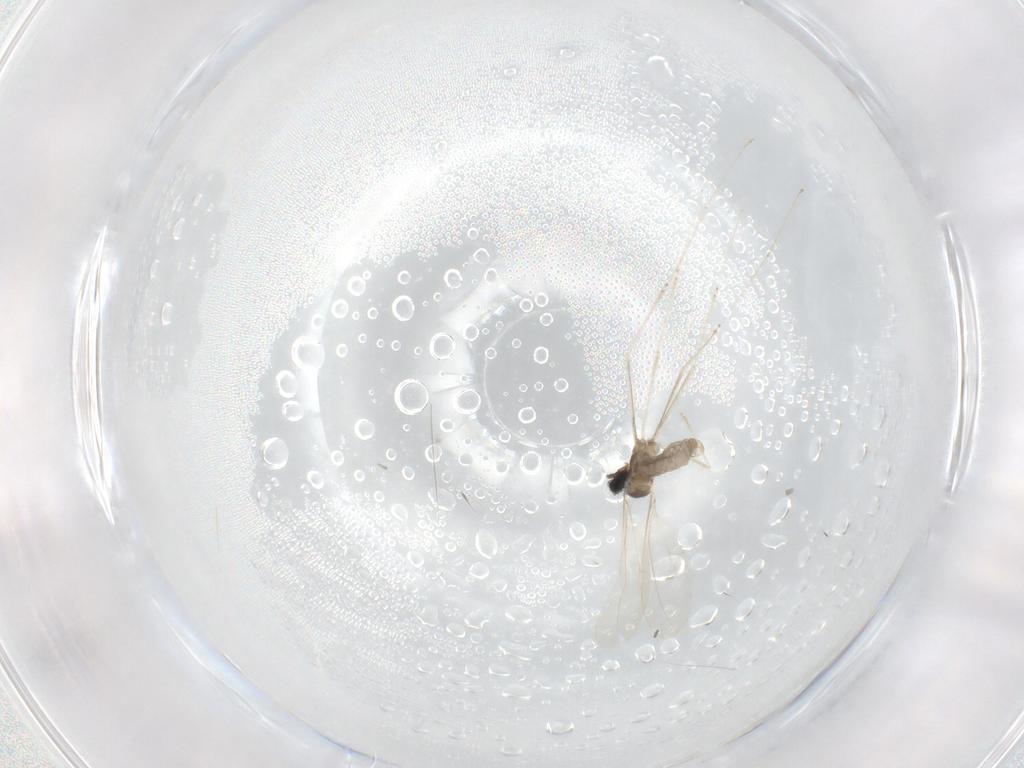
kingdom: Animalia
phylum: Arthropoda
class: Insecta
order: Diptera
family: Cecidomyiidae
